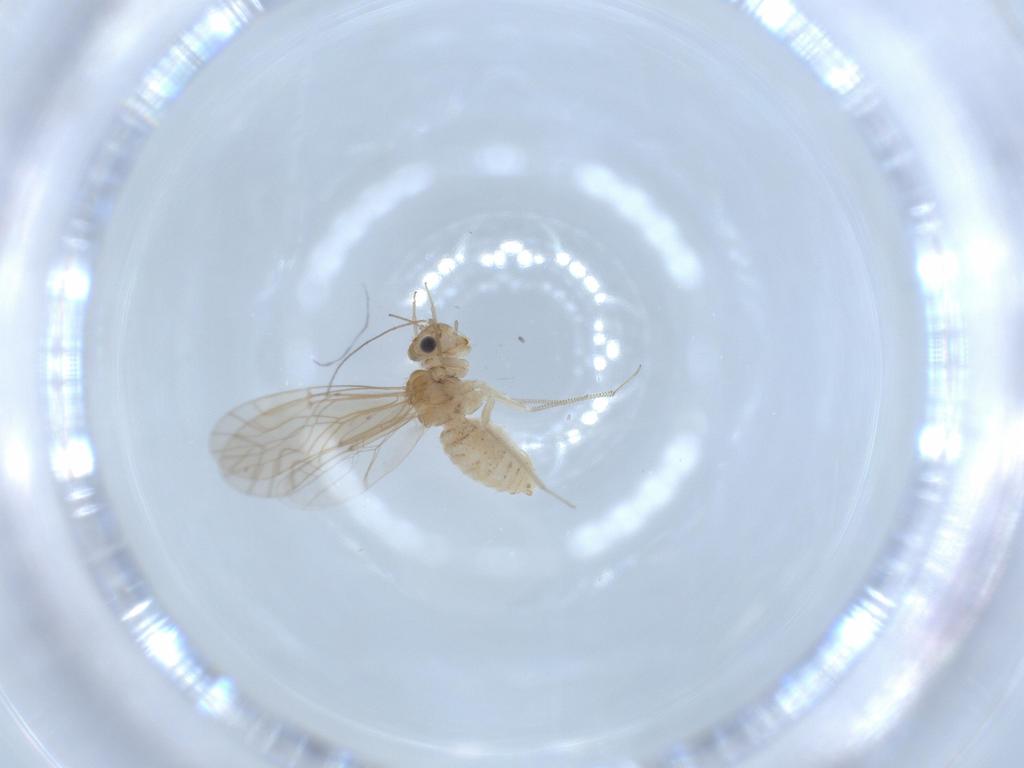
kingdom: Animalia
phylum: Arthropoda
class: Insecta
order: Psocodea
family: Lachesillidae
